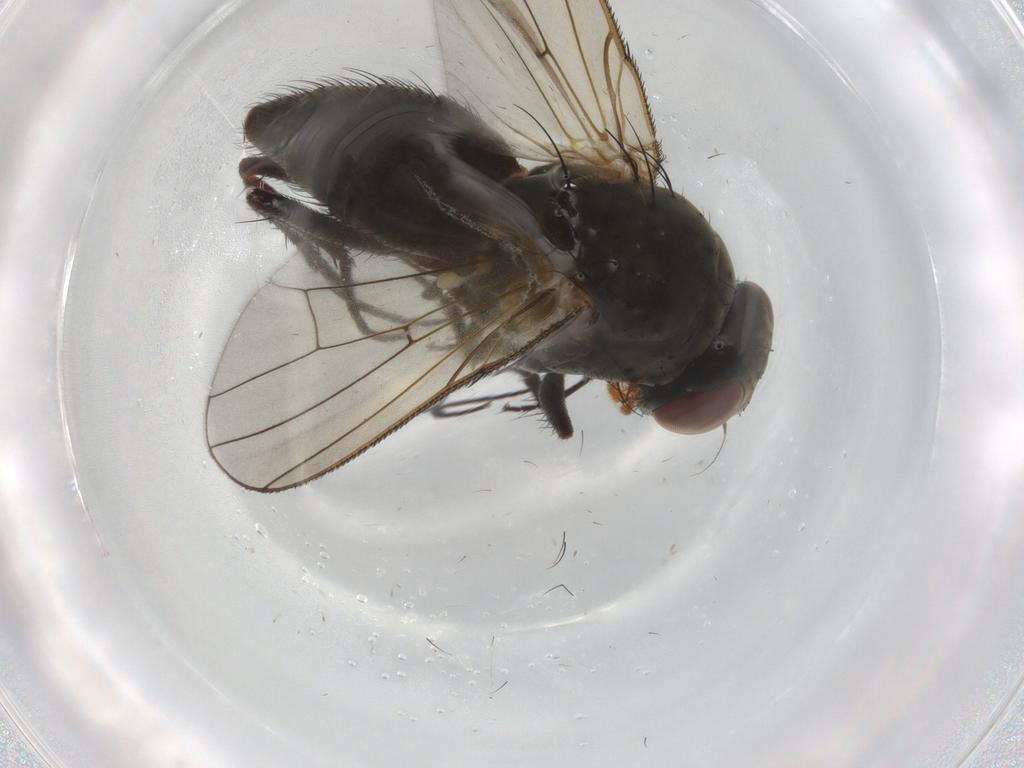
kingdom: Animalia
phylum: Arthropoda
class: Insecta
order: Diptera
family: Anthomyiidae
